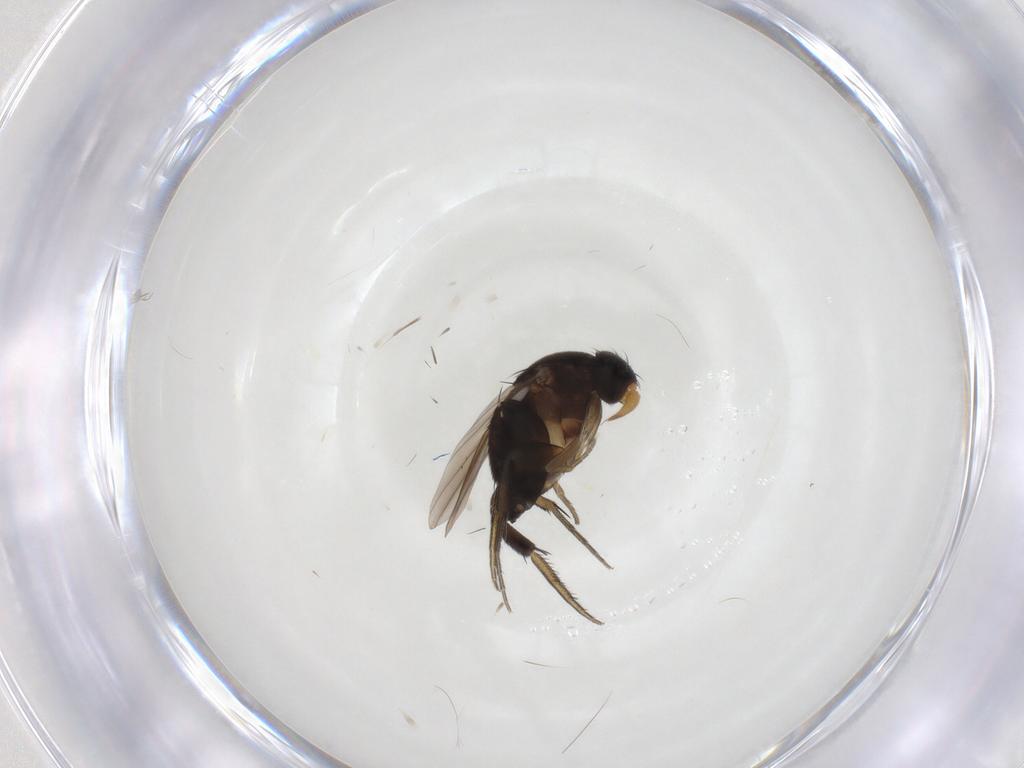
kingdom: Animalia
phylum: Arthropoda
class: Insecta
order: Diptera
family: Phoridae
